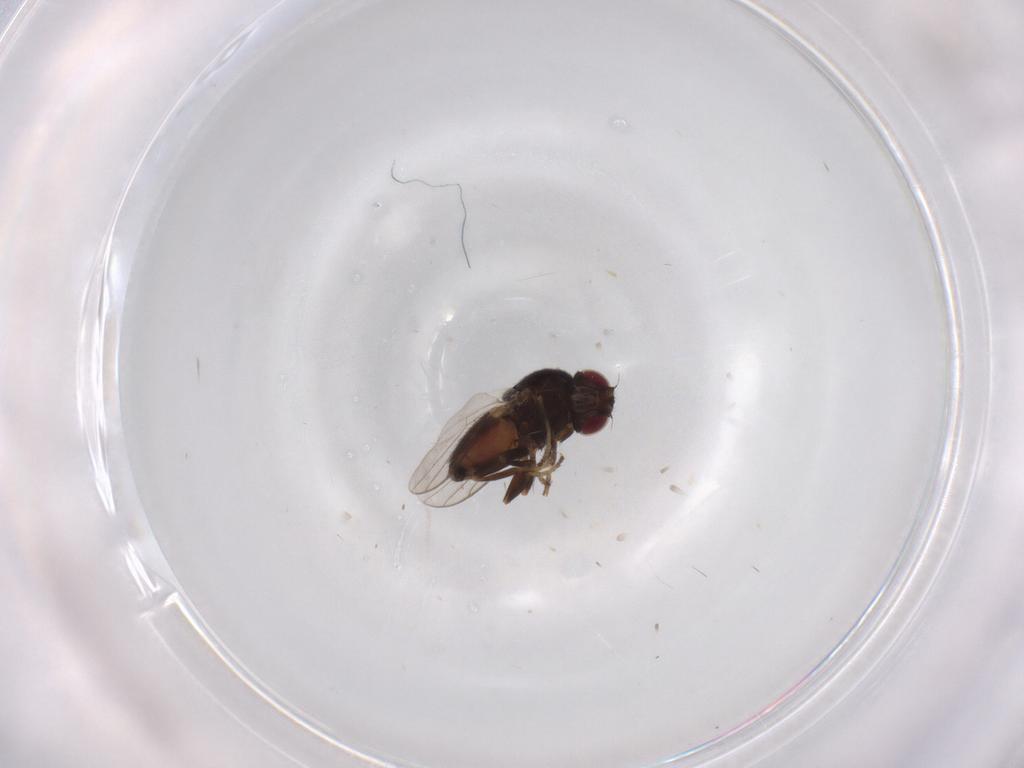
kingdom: Animalia
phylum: Arthropoda
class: Insecta
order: Diptera
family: Chloropidae
